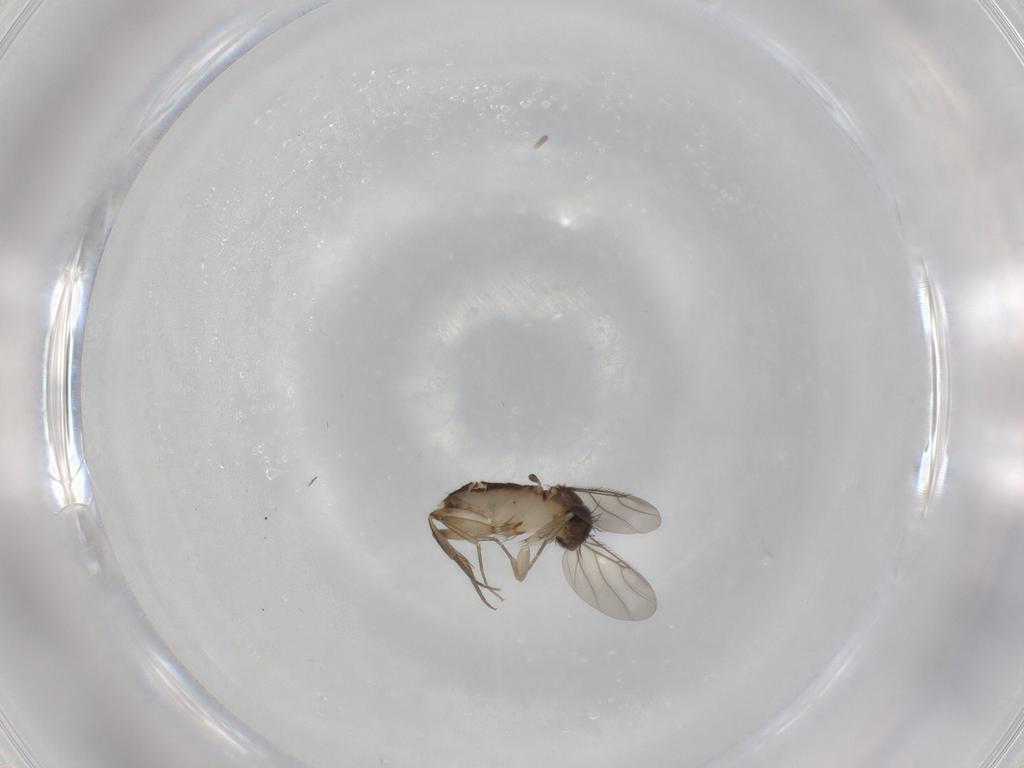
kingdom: Animalia
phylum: Arthropoda
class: Insecta
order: Diptera
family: Phoridae
